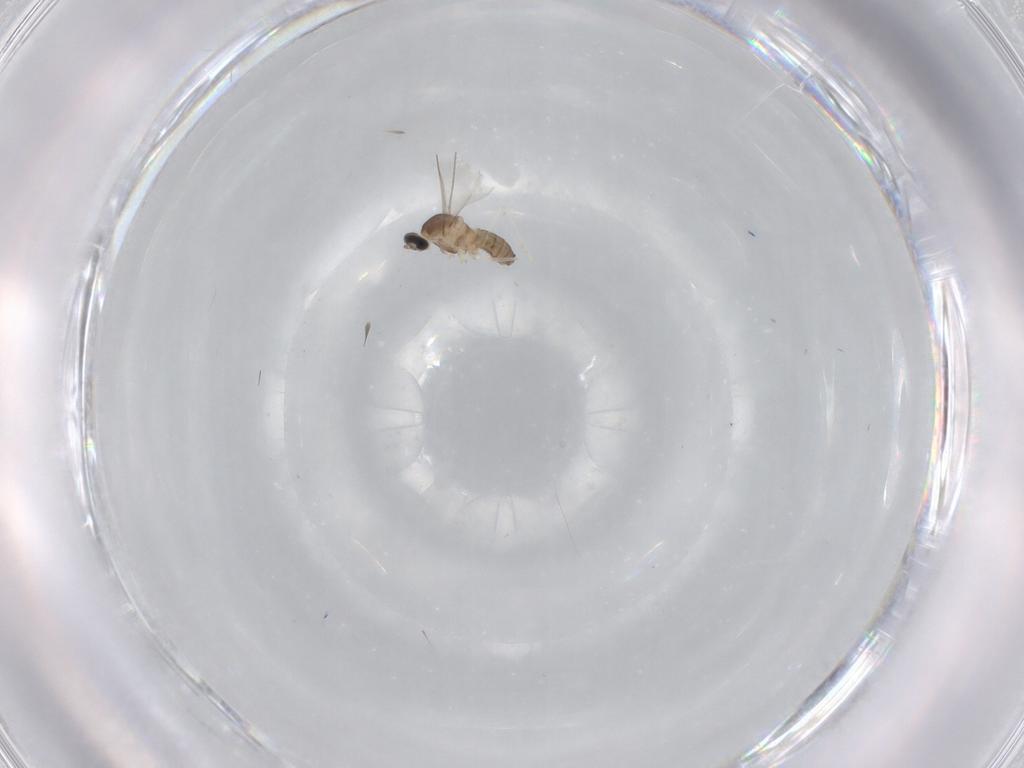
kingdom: Animalia
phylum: Arthropoda
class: Insecta
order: Diptera
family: Cecidomyiidae
